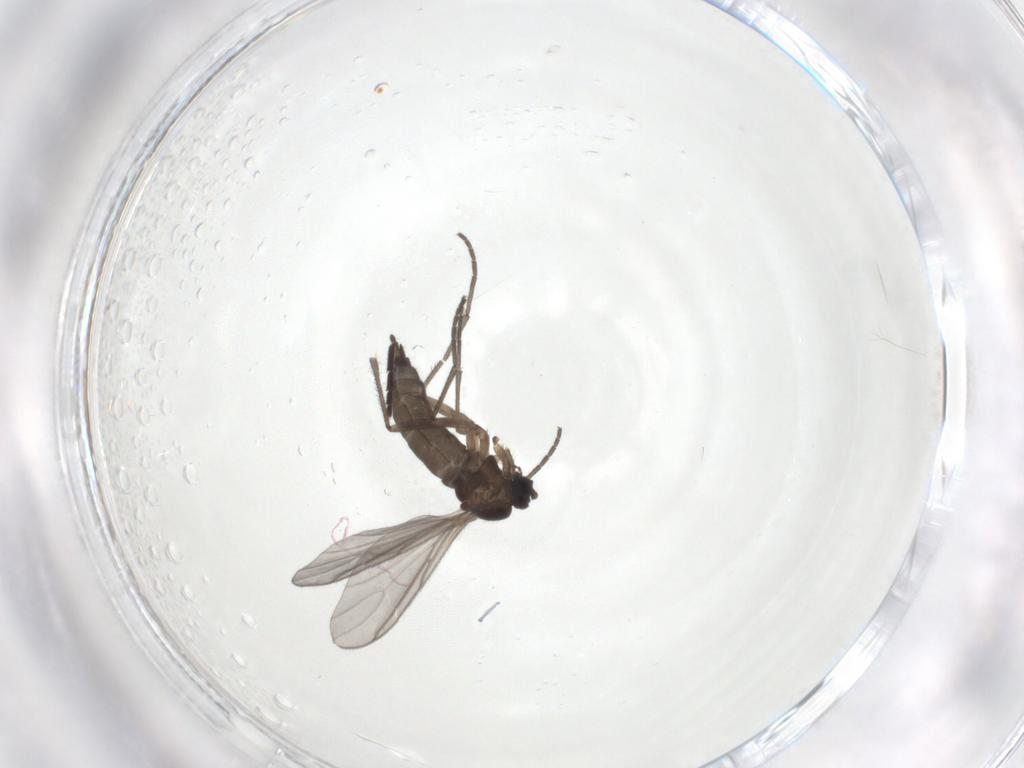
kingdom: Animalia
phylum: Arthropoda
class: Insecta
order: Diptera
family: Sciaridae
